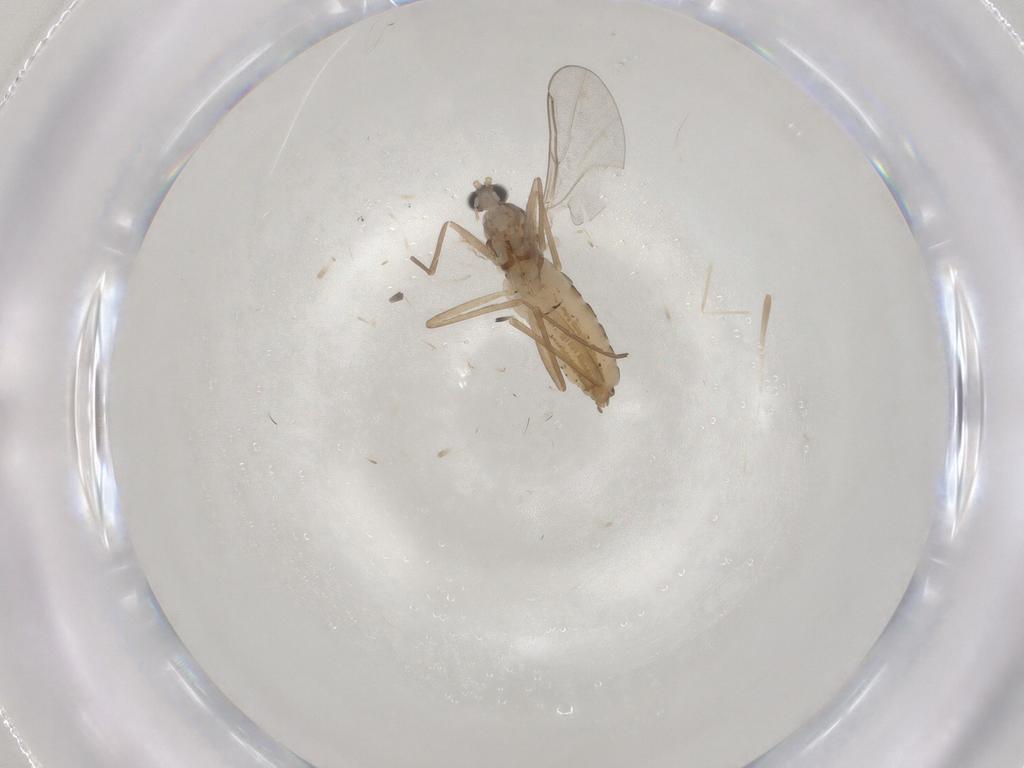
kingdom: Animalia
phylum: Arthropoda
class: Insecta
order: Diptera
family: Cecidomyiidae
